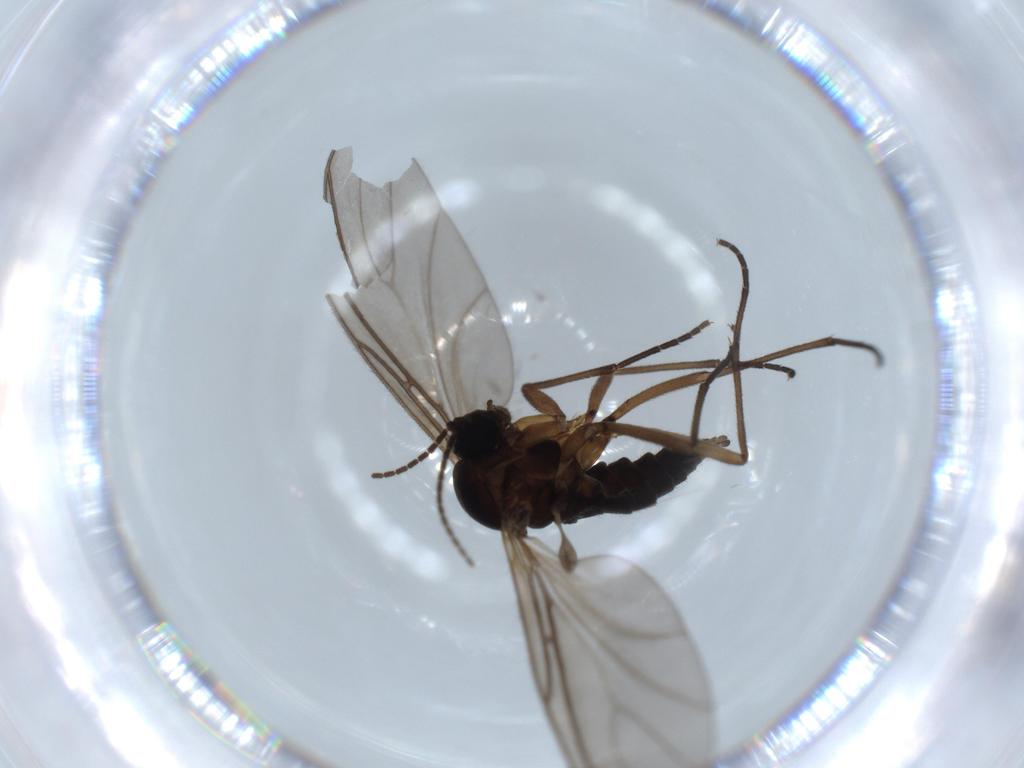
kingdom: Animalia
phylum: Arthropoda
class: Insecta
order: Diptera
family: Sciaridae
